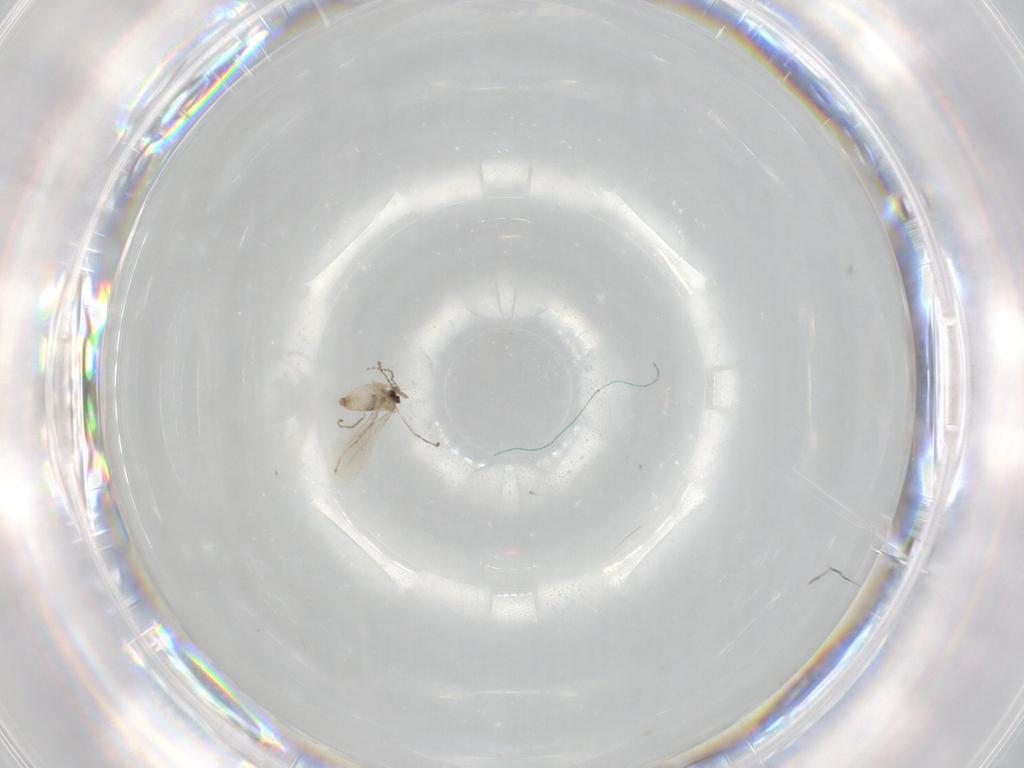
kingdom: Animalia
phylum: Arthropoda
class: Insecta
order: Diptera
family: Cecidomyiidae
